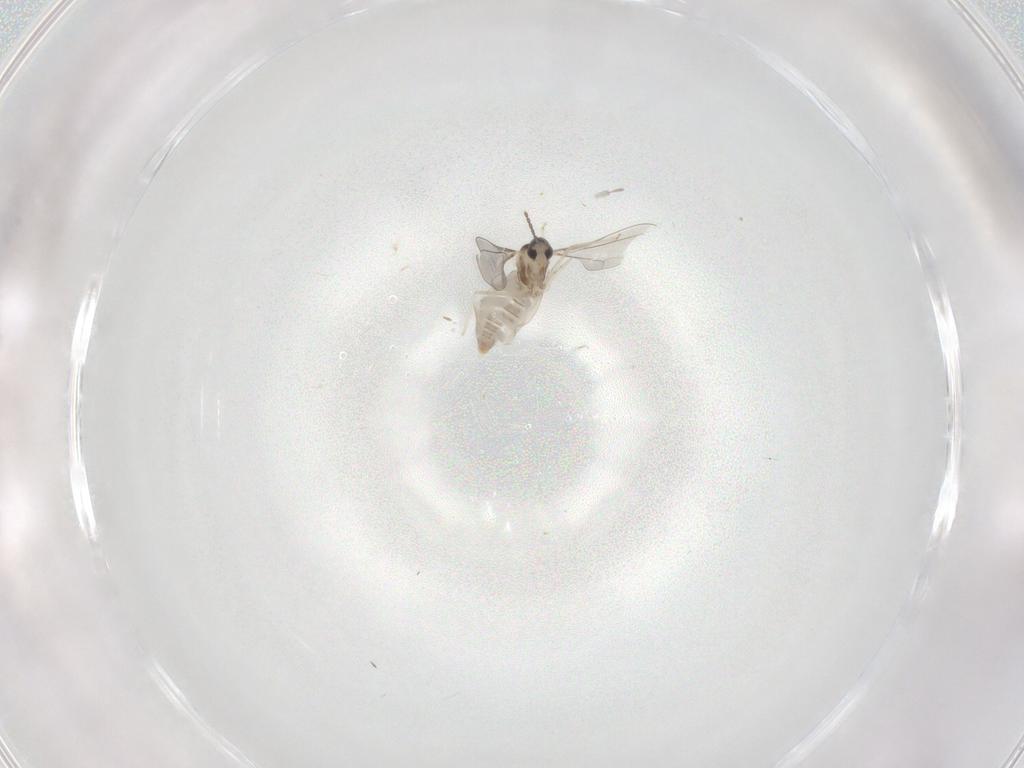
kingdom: Animalia
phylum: Arthropoda
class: Insecta
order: Diptera
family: Cecidomyiidae
